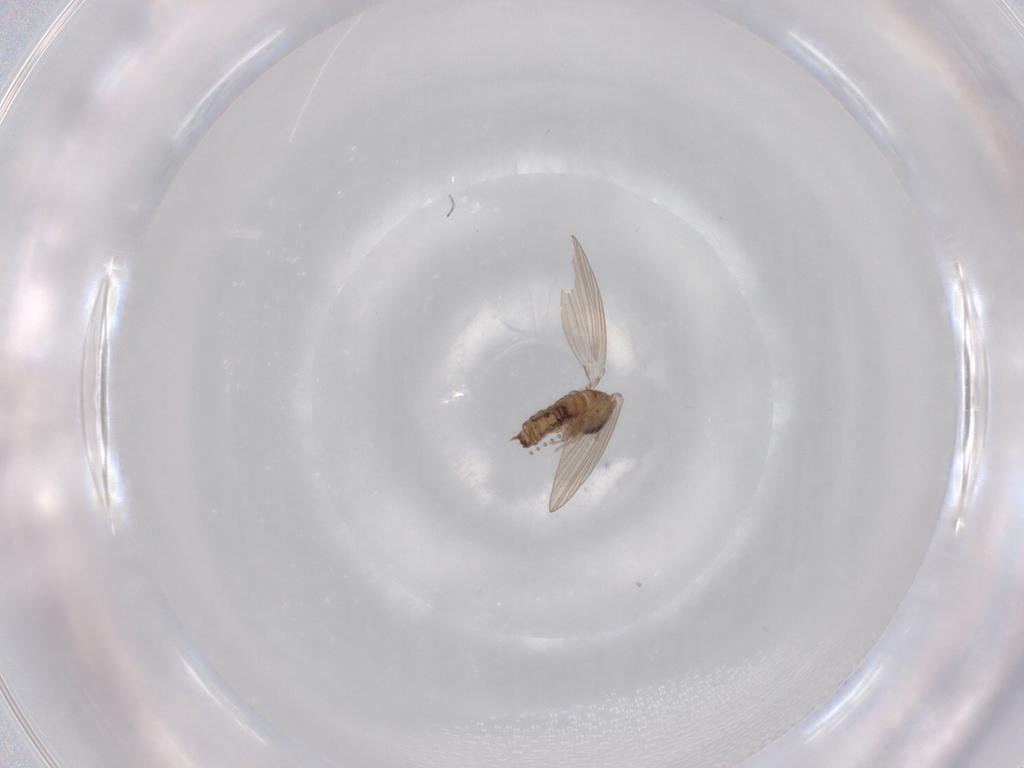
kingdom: Animalia
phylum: Arthropoda
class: Insecta
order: Diptera
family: Psychodidae
